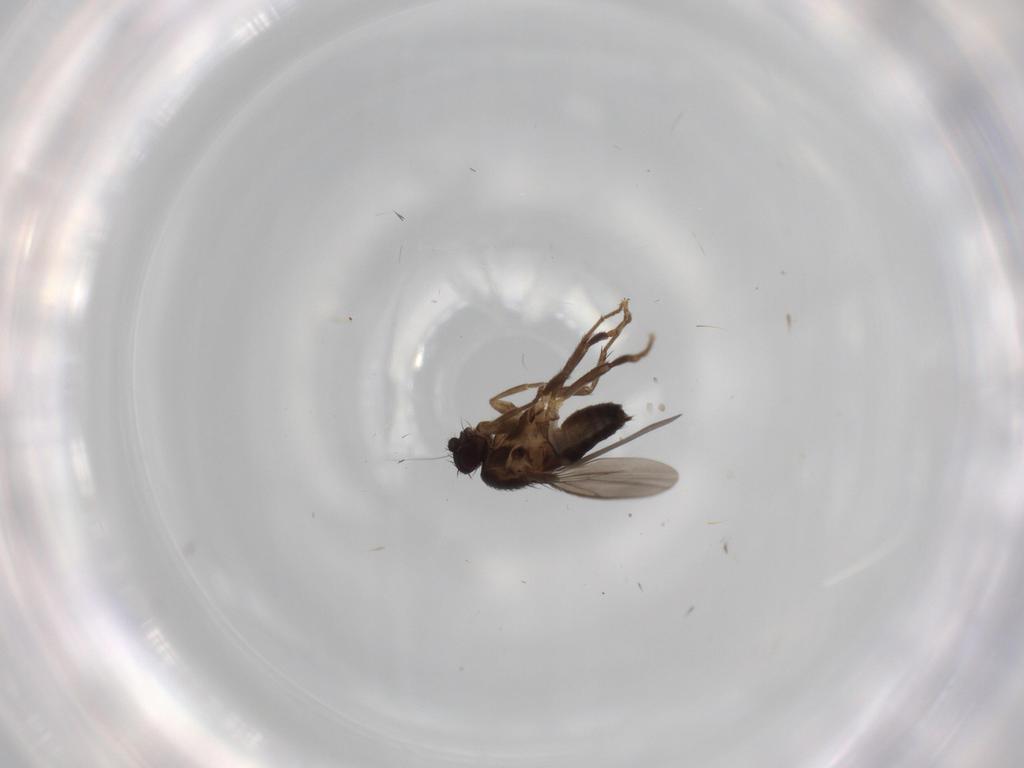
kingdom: Animalia
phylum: Arthropoda
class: Insecta
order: Diptera
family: Sphaeroceridae
